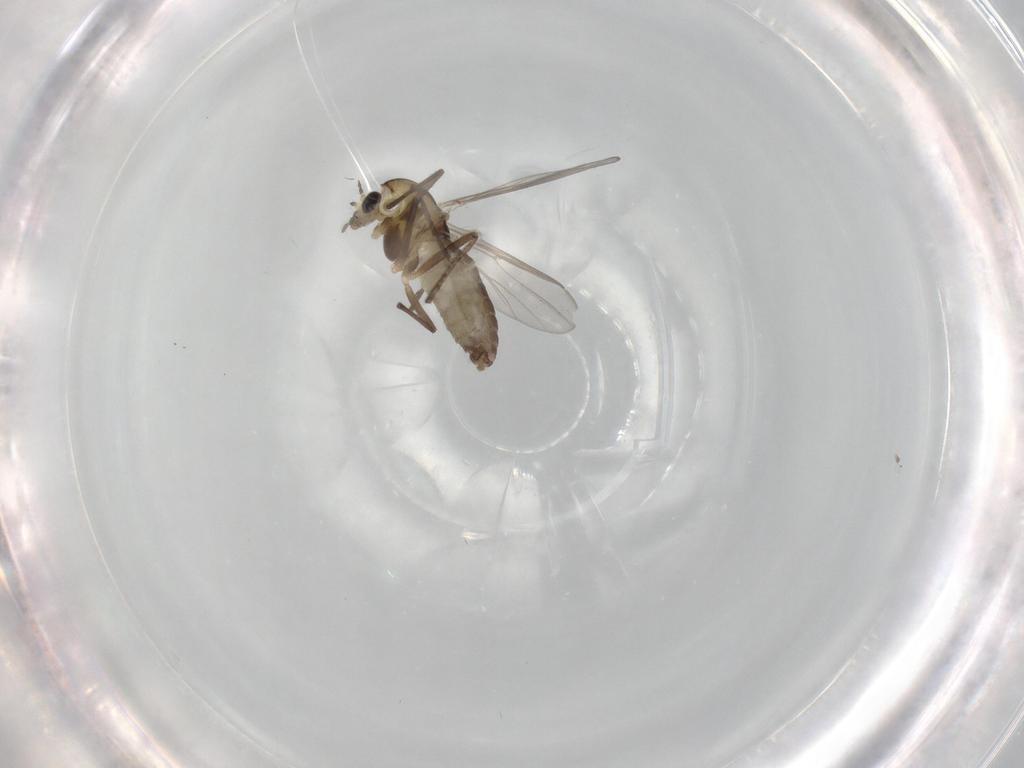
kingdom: Animalia
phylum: Arthropoda
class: Insecta
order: Diptera
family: Chironomidae
